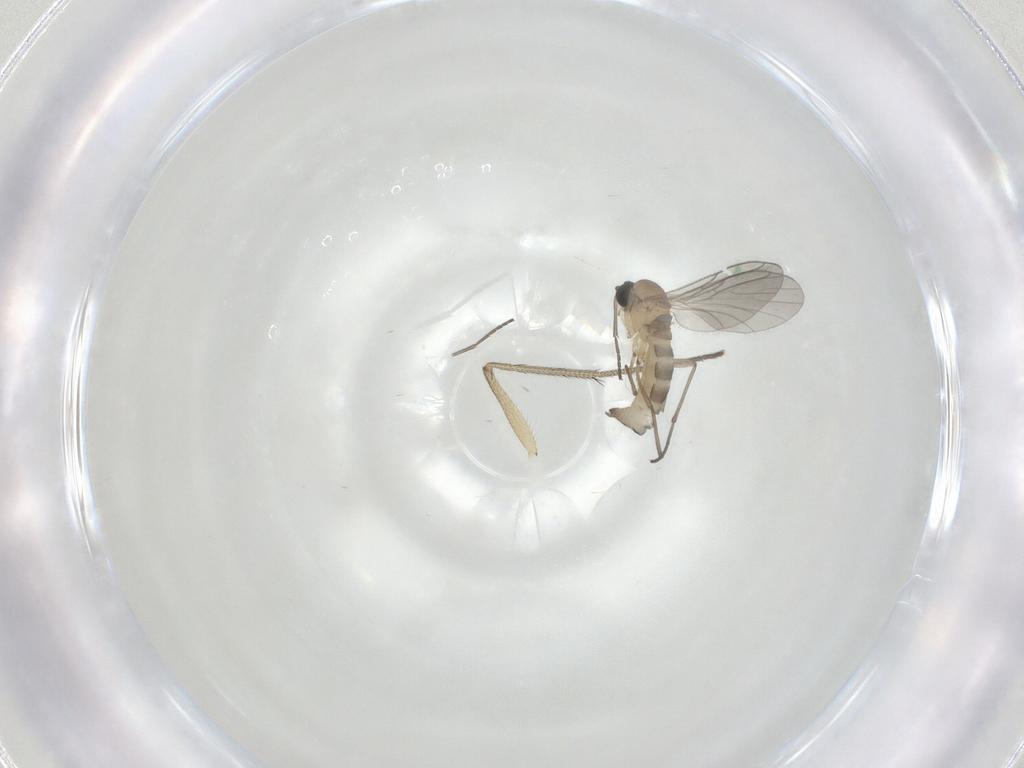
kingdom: Animalia
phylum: Arthropoda
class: Insecta
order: Diptera
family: Sciaridae
